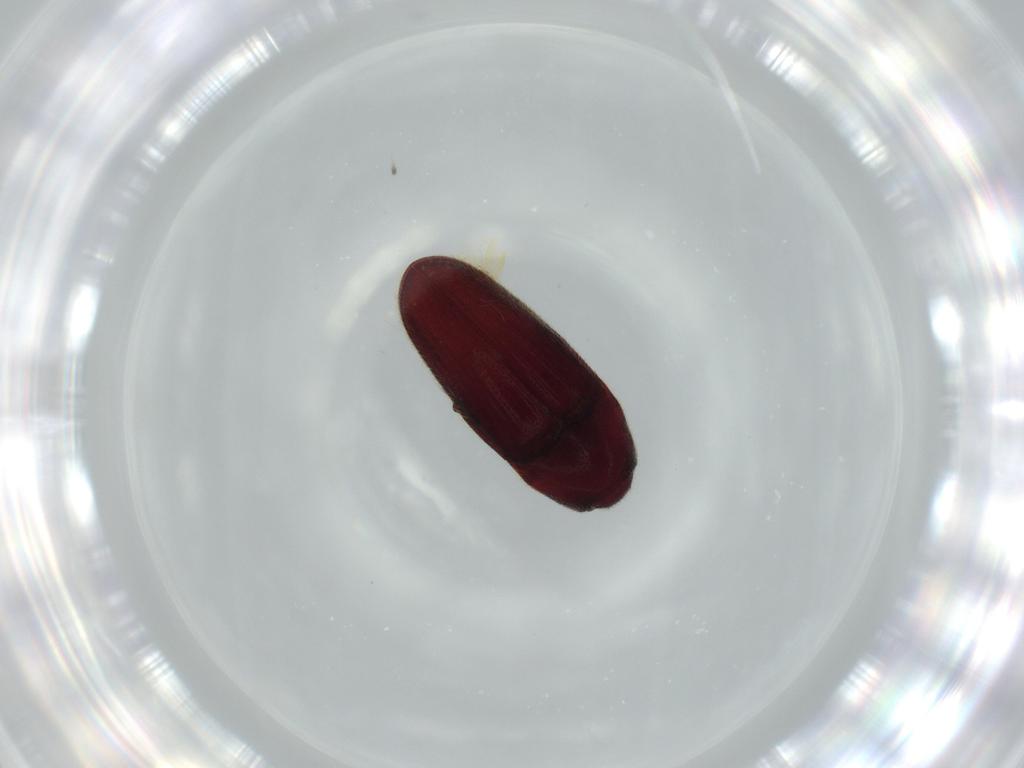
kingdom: Animalia
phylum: Arthropoda
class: Insecta
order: Coleoptera
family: Throscidae
